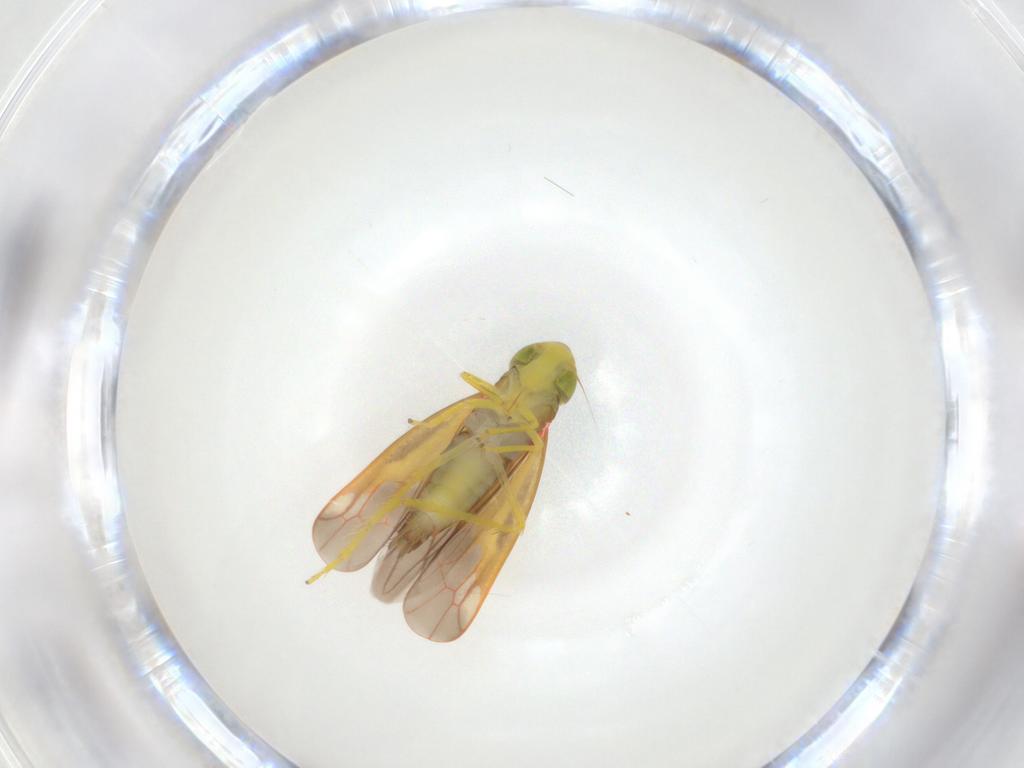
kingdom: Animalia
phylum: Arthropoda
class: Insecta
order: Hemiptera
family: Cicadellidae
